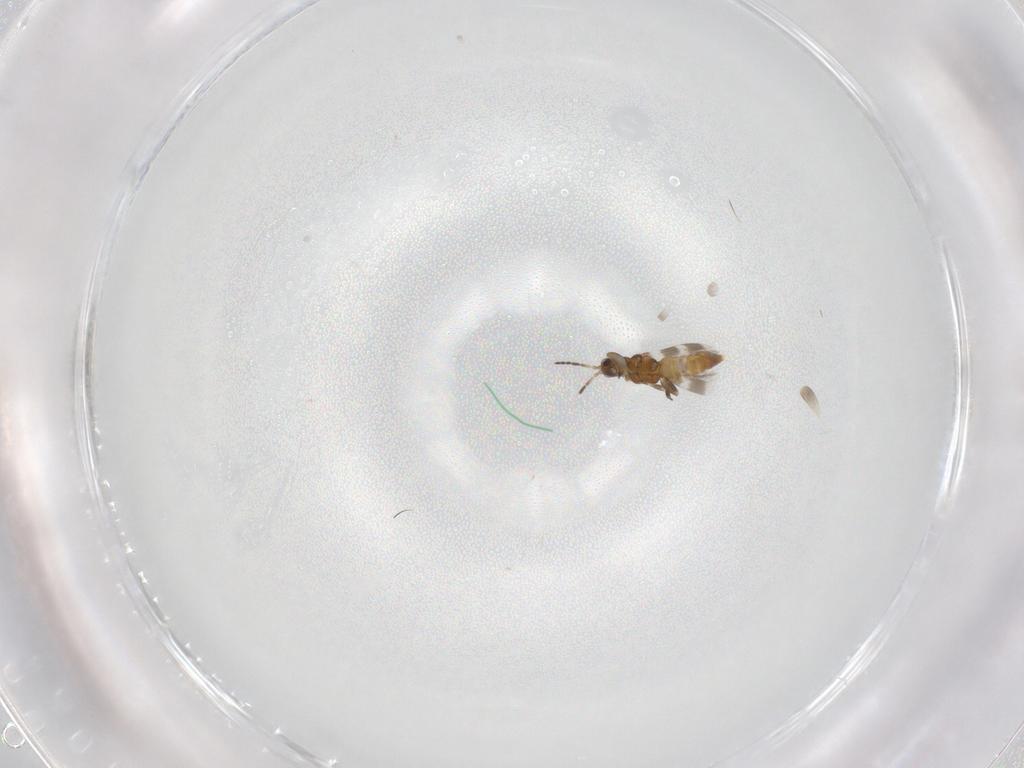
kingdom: Animalia
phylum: Arthropoda
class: Insecta
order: Thysanoptera
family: Aeolothripidae
